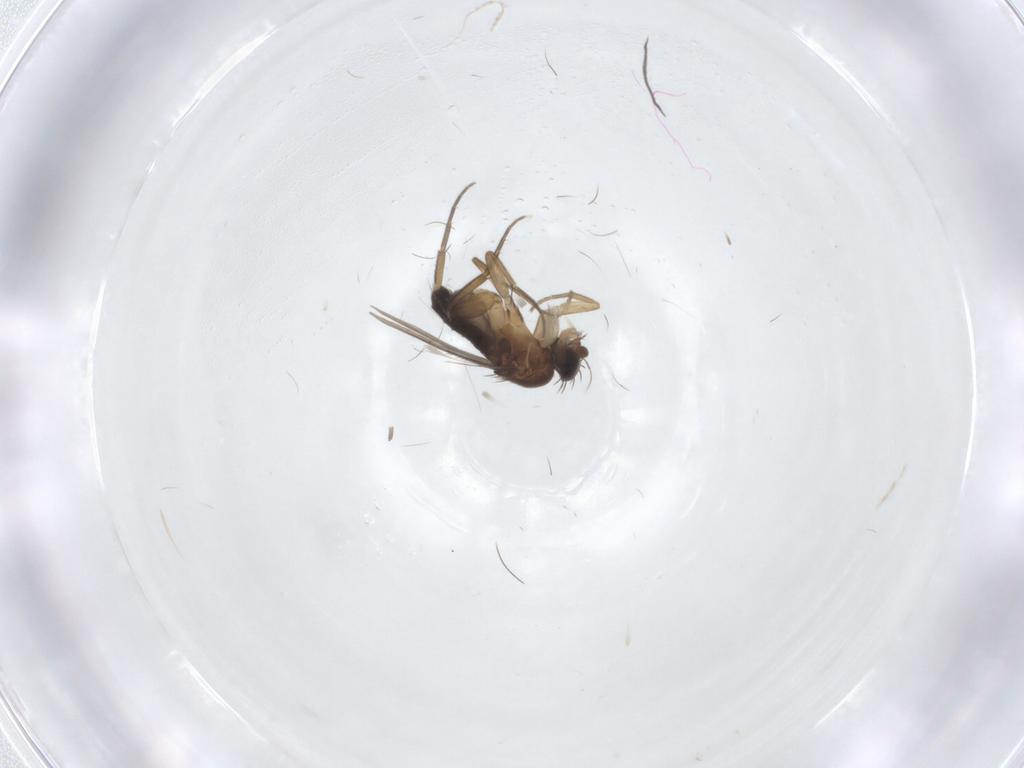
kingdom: Animalia
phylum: Arthropoda
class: Insecta
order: Diptera
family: Phoridae
